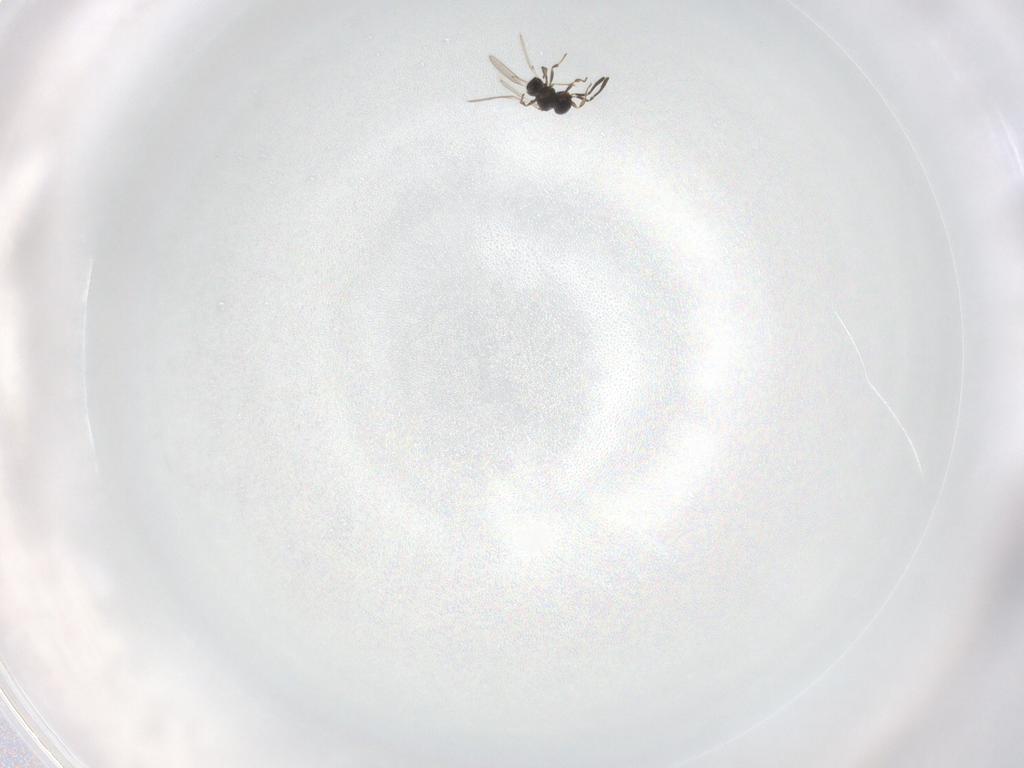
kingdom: Animalia
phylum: Arthropoda
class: Insecta
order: Hymenoptera
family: Scelionidae
